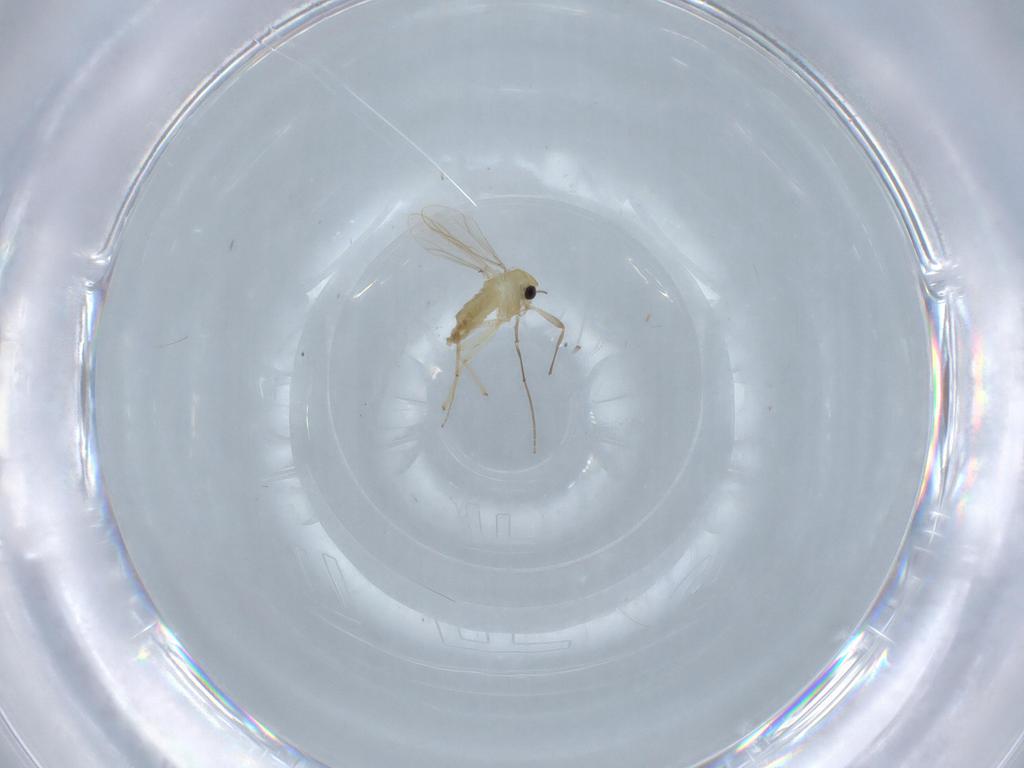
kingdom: Animalia
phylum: Arthropoda
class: Insecta
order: Diptera
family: Chironomidae
